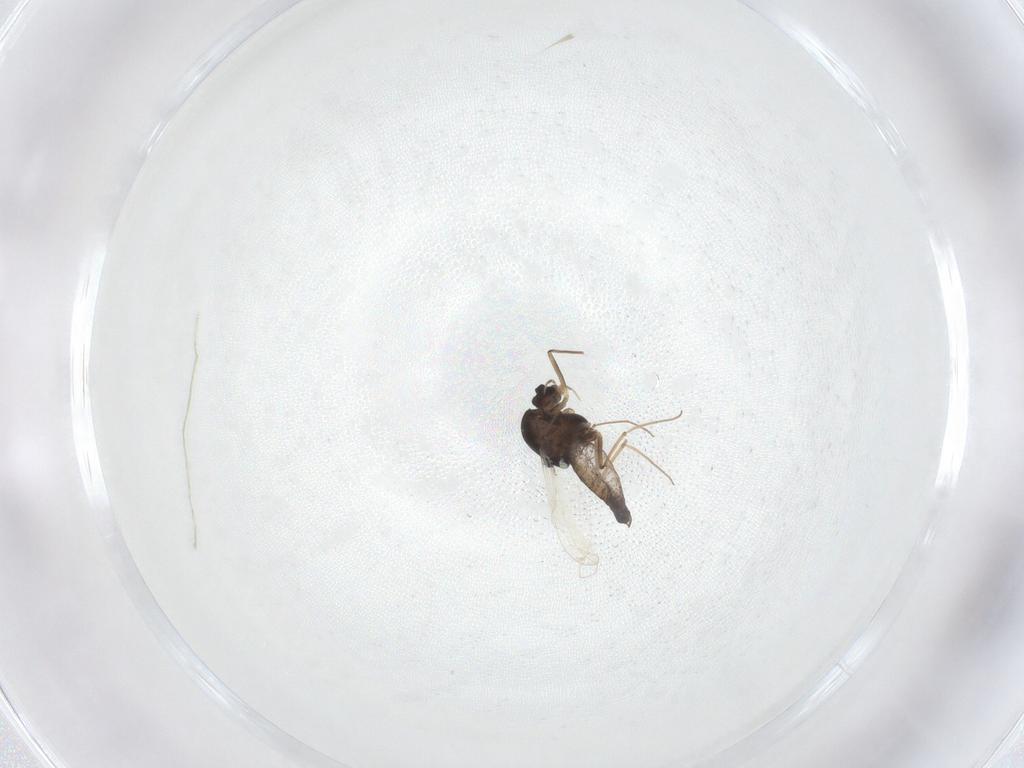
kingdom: Animalia
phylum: Arthropoda
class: Insecta
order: Diptera
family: Chironomidae
